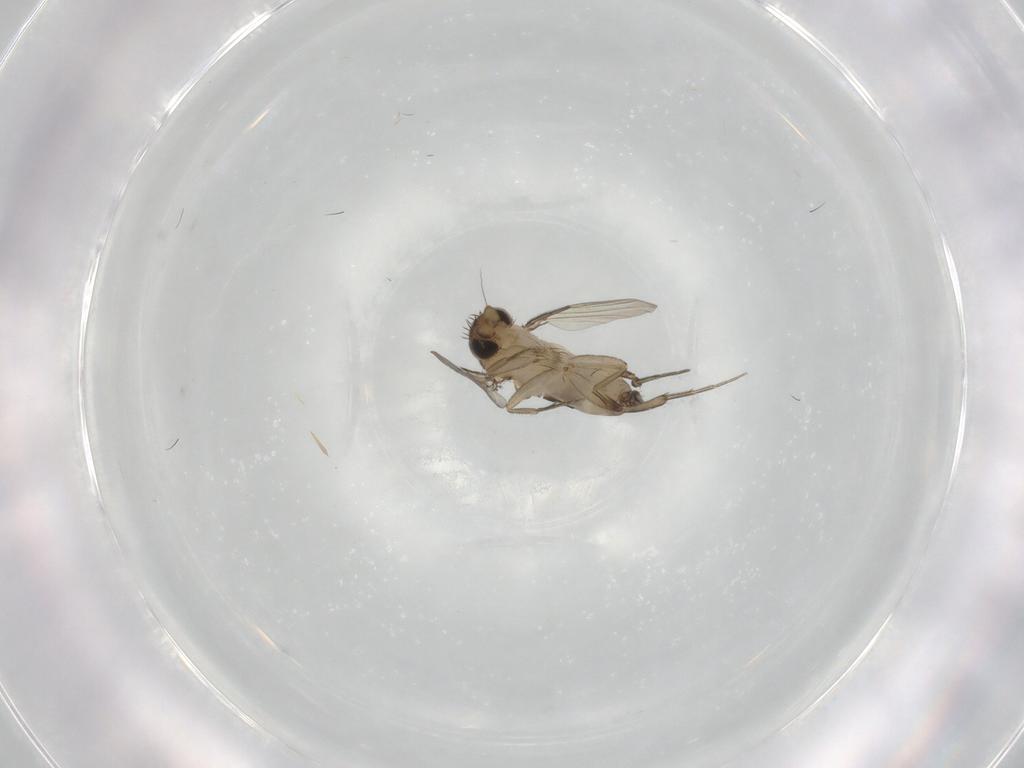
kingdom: Animalia
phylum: Arthropoda
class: Insecta
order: Diptera
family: Phoridae
